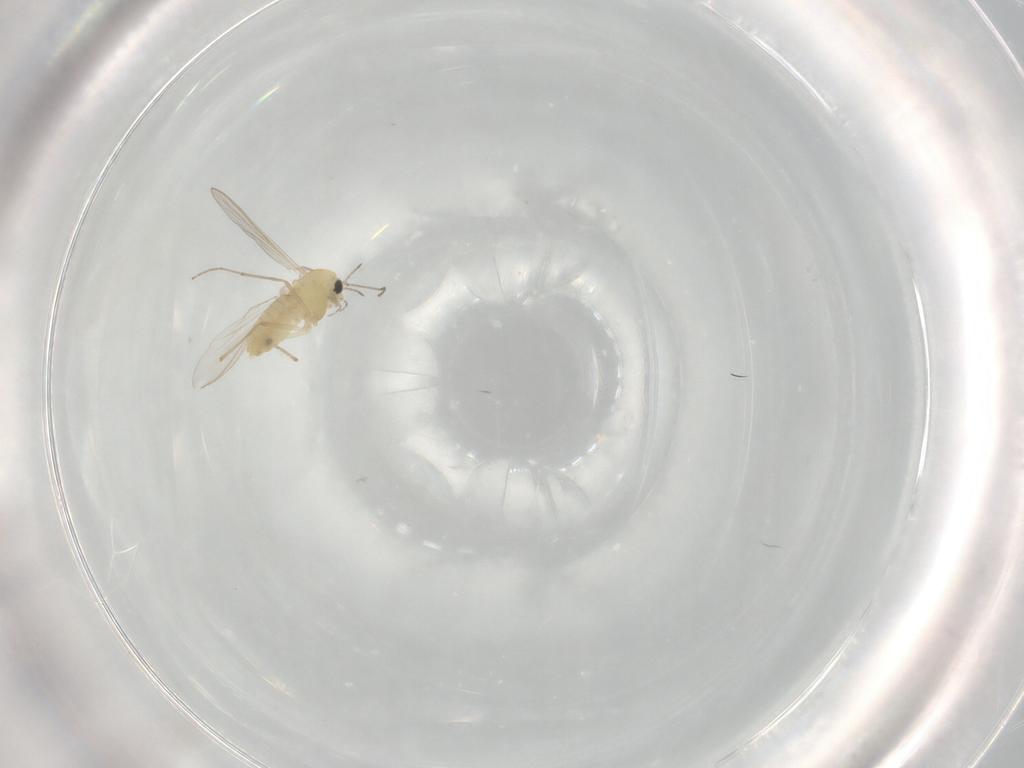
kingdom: Animalia
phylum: Arthropoda
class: Insecta
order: Diptera
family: Chironomidae
